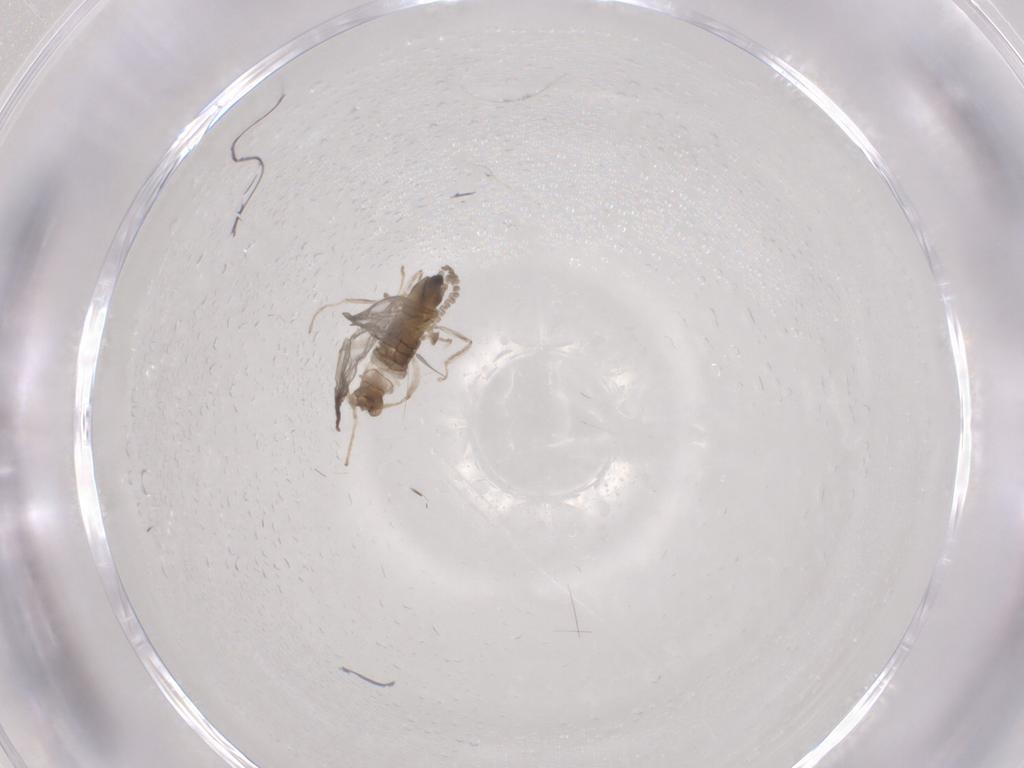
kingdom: Animalia
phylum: Arthropoda
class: Insecta
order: Diptera
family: Cecidomyiidae
